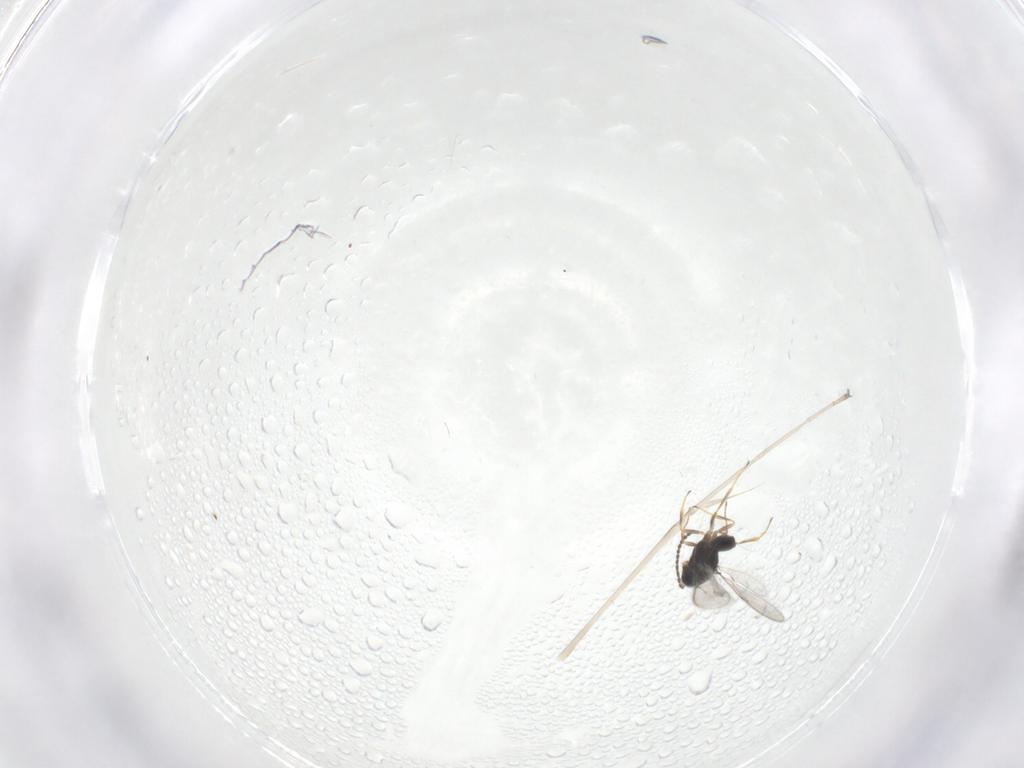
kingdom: Animalia
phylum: Arthropoda
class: Insecta
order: Hymenoptera
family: Scelionidae
